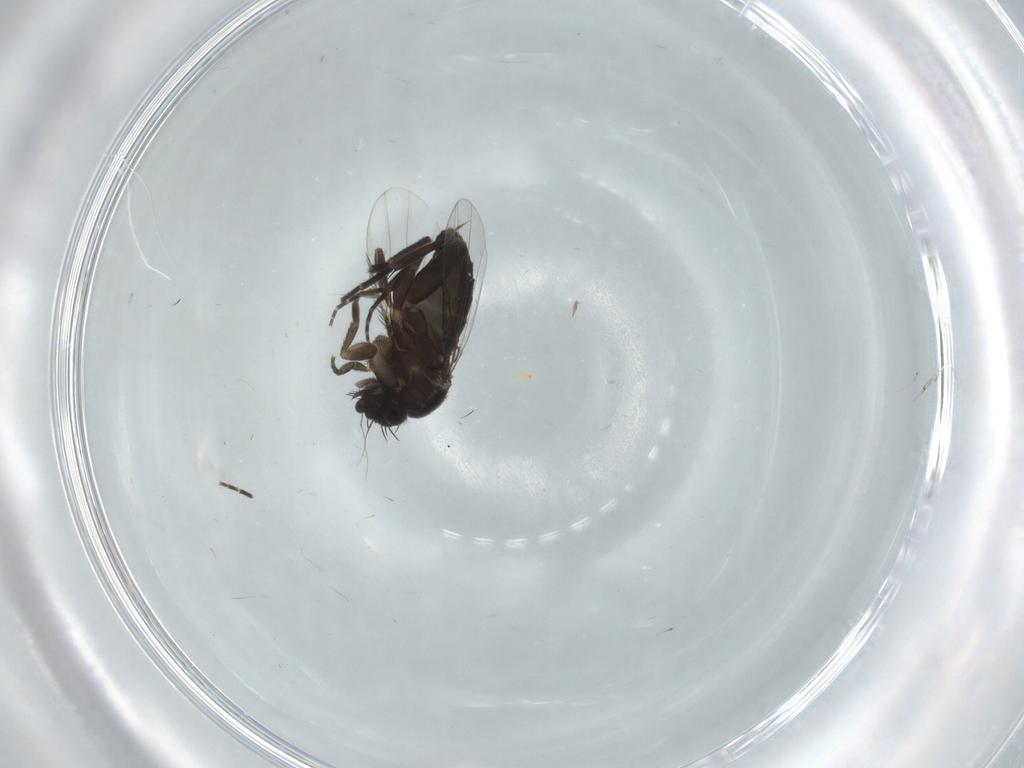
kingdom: Animalia
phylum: Arthropoda
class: Insecta
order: Diptera
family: Phoridae
